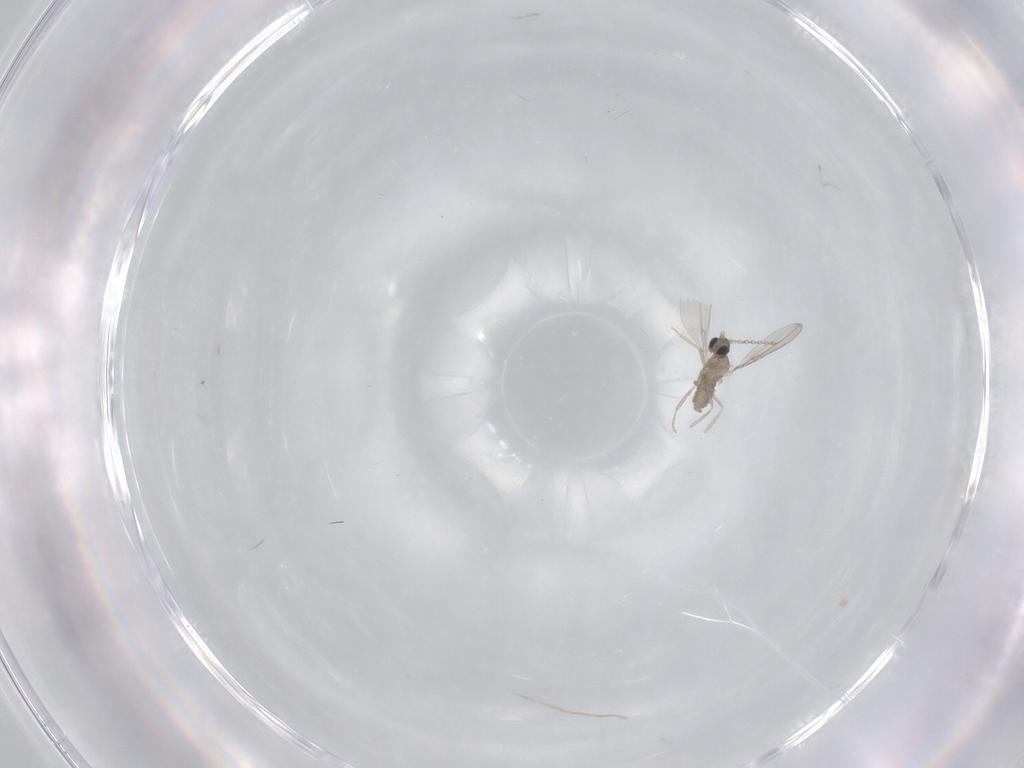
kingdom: Animalia
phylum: Arthropoda
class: Insecta
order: Diptera
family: Cecidomyiidae
